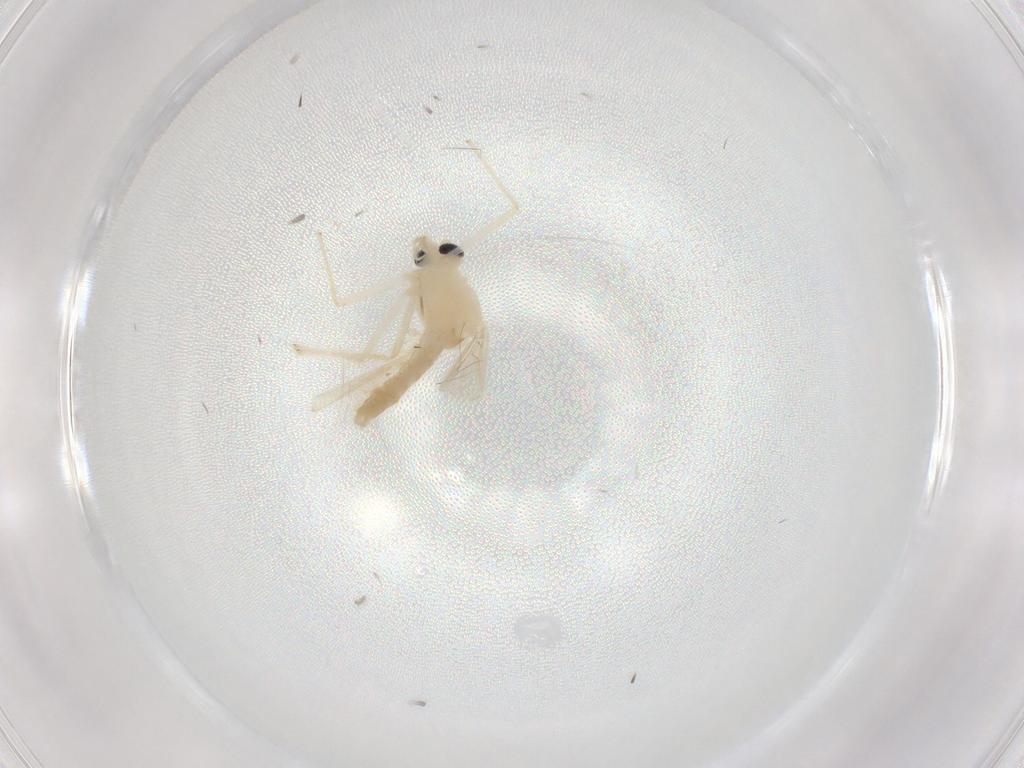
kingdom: Animalia
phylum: Arthropoda
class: Insecta
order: Diptera
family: Chironomidae
